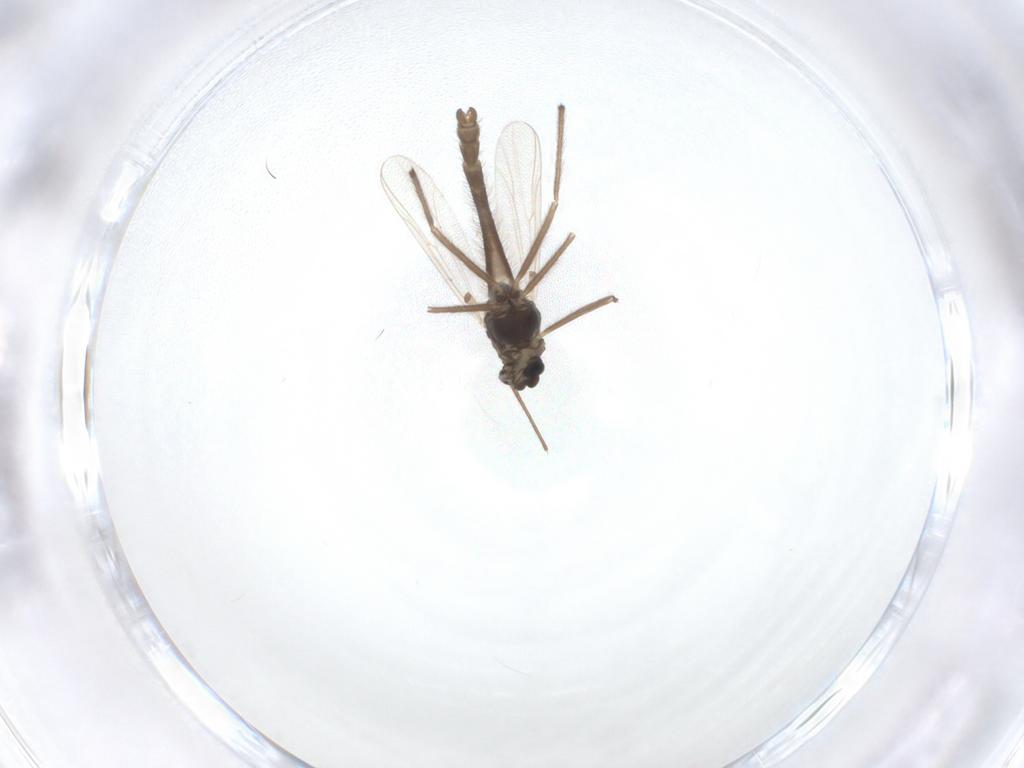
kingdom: Animalia
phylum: Arthropoda
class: Insecta
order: Diptera
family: Chironomidae
